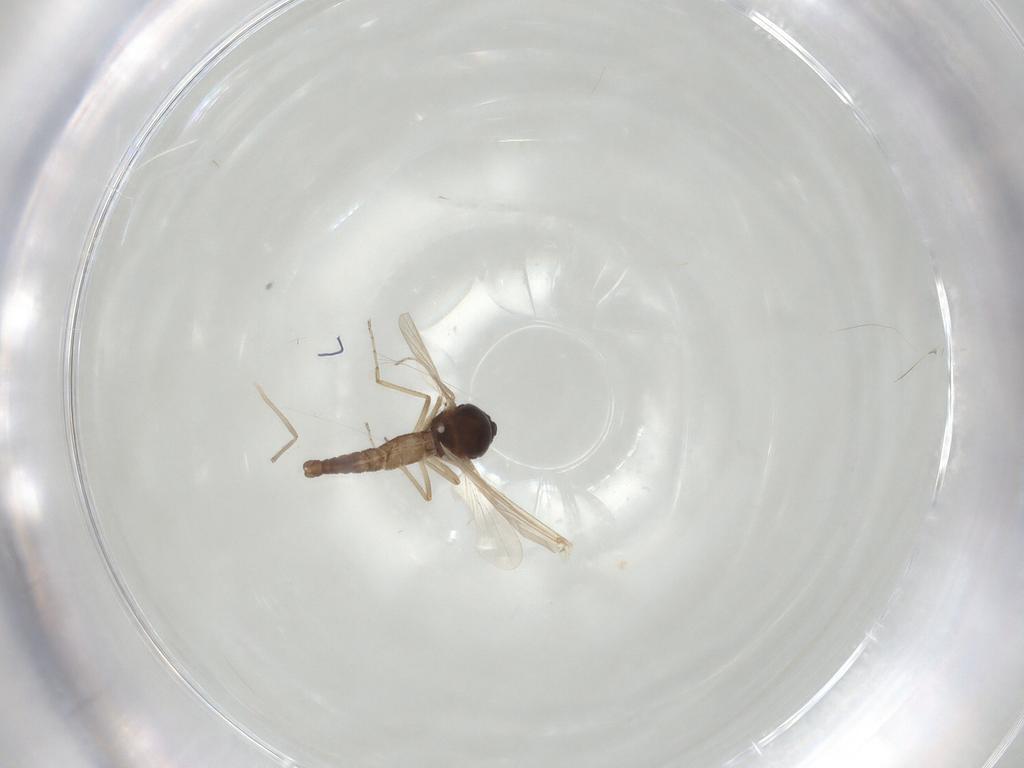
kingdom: Animalia
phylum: Arthropoda
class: Insecta
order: Diptera
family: Ceratopogonidae
